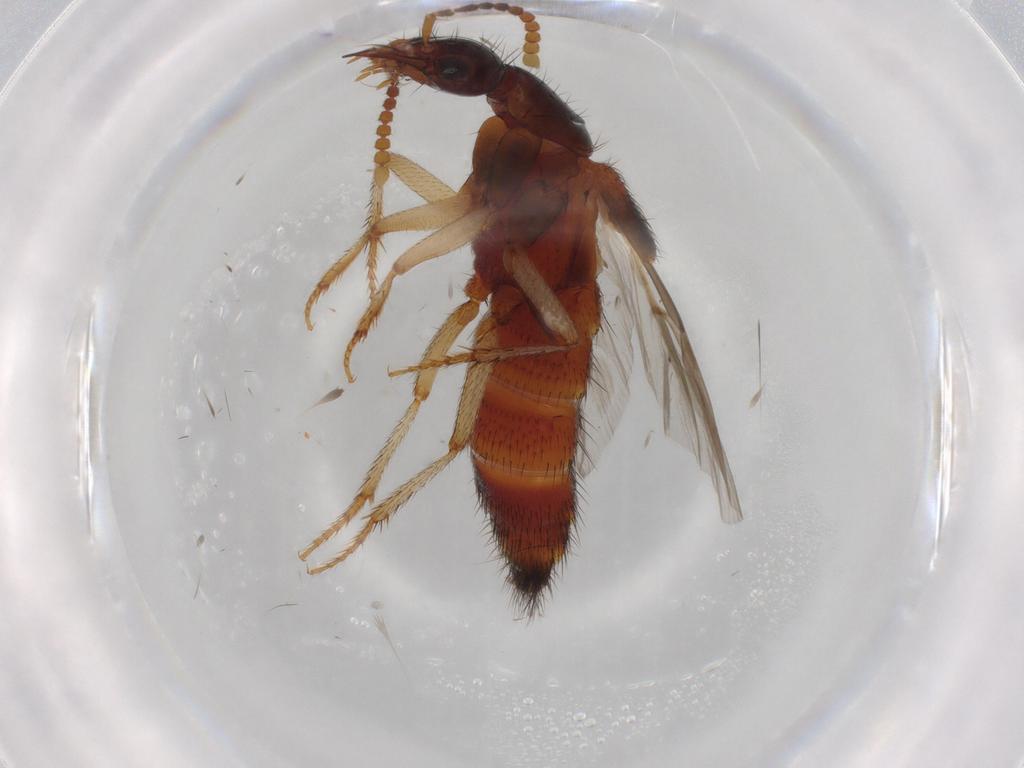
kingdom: Animalia
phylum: Arthropoda
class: Insecta
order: Coleoptera
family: Staphylinidae
